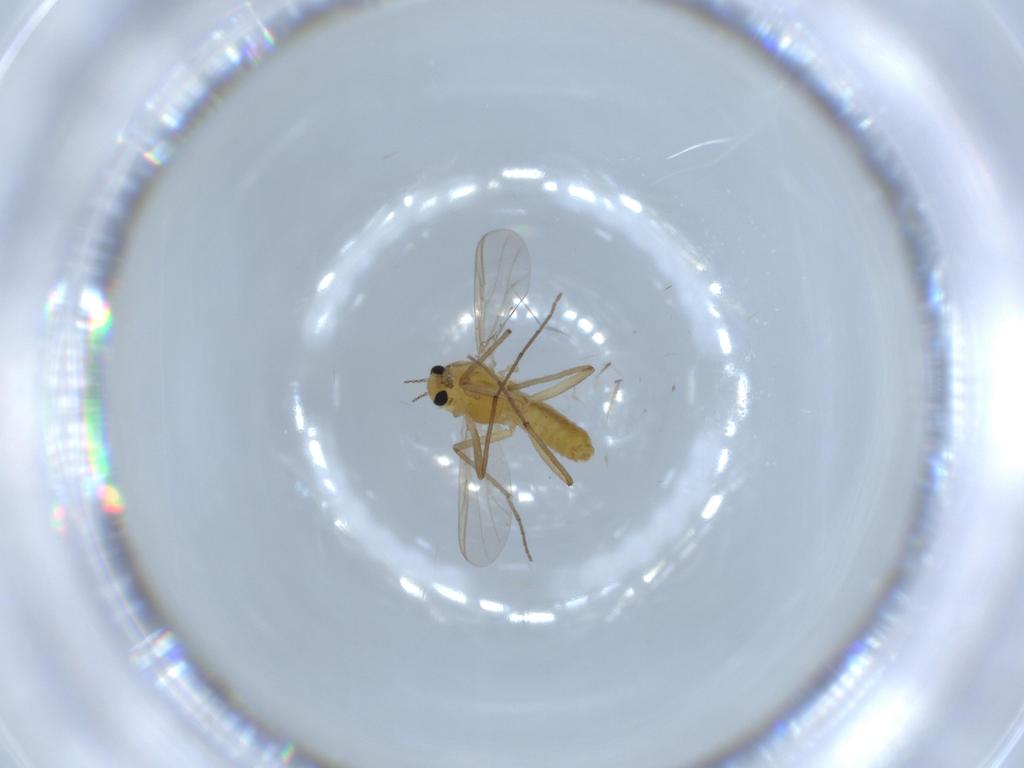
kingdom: Animalia
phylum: Arthropoda
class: Insecta
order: Diptera
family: Chironomidae
